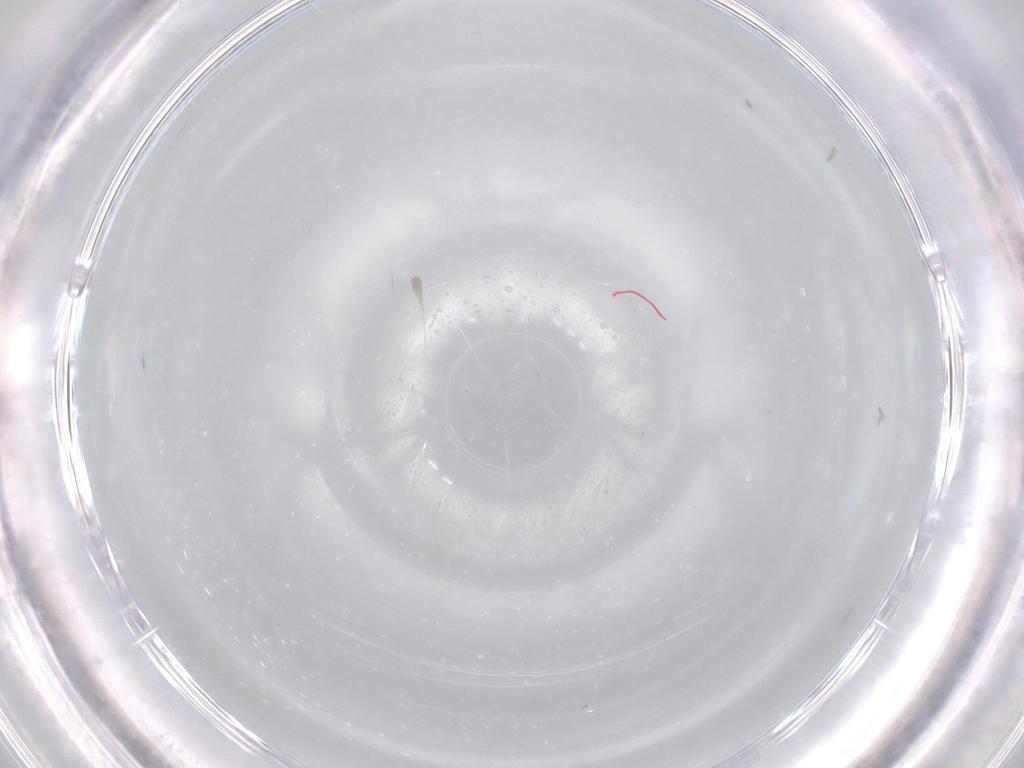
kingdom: Animalia
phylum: Arthropoda
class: Insecta
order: Diptera
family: Cecidomyiidae
